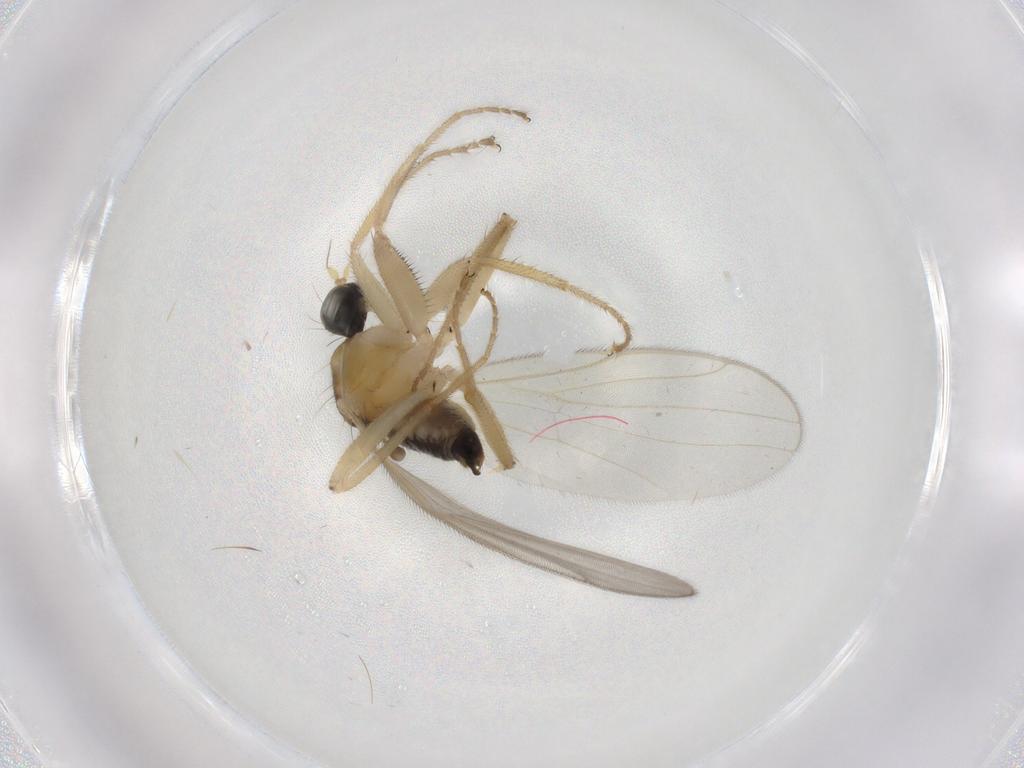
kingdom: Animalia
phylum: Arthropoda
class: Insecta
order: Diptera
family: Hybotidae
